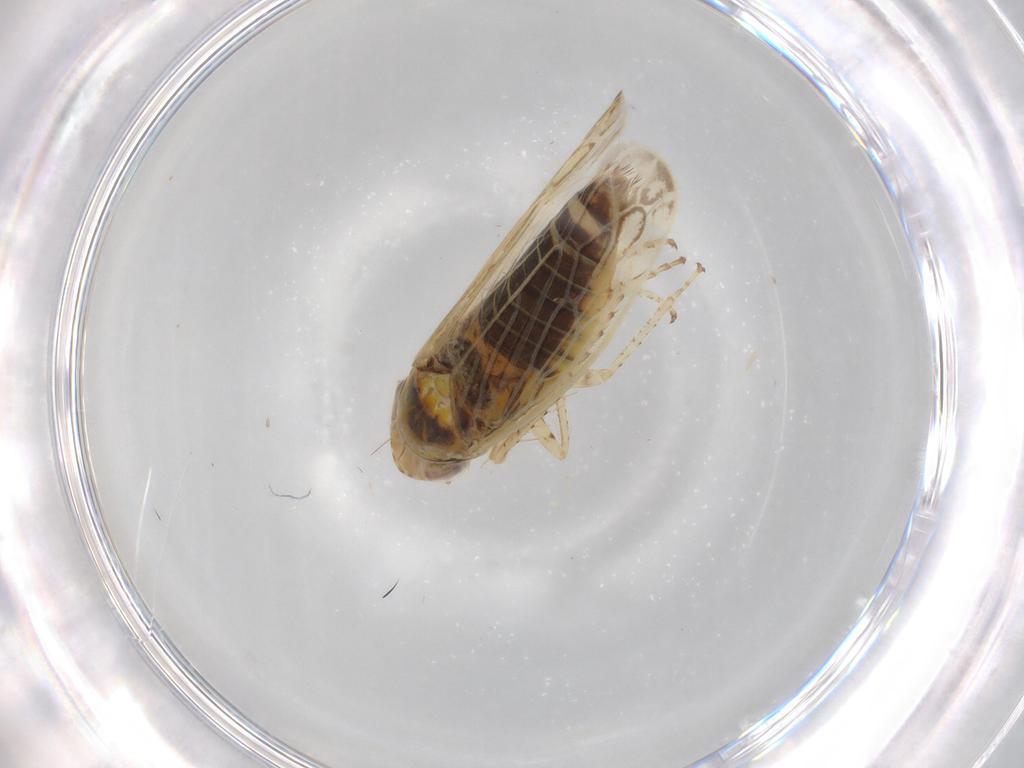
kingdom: Animalia
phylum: Arthropoda
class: Insecta
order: Hemiptera
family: Cicadellidae
